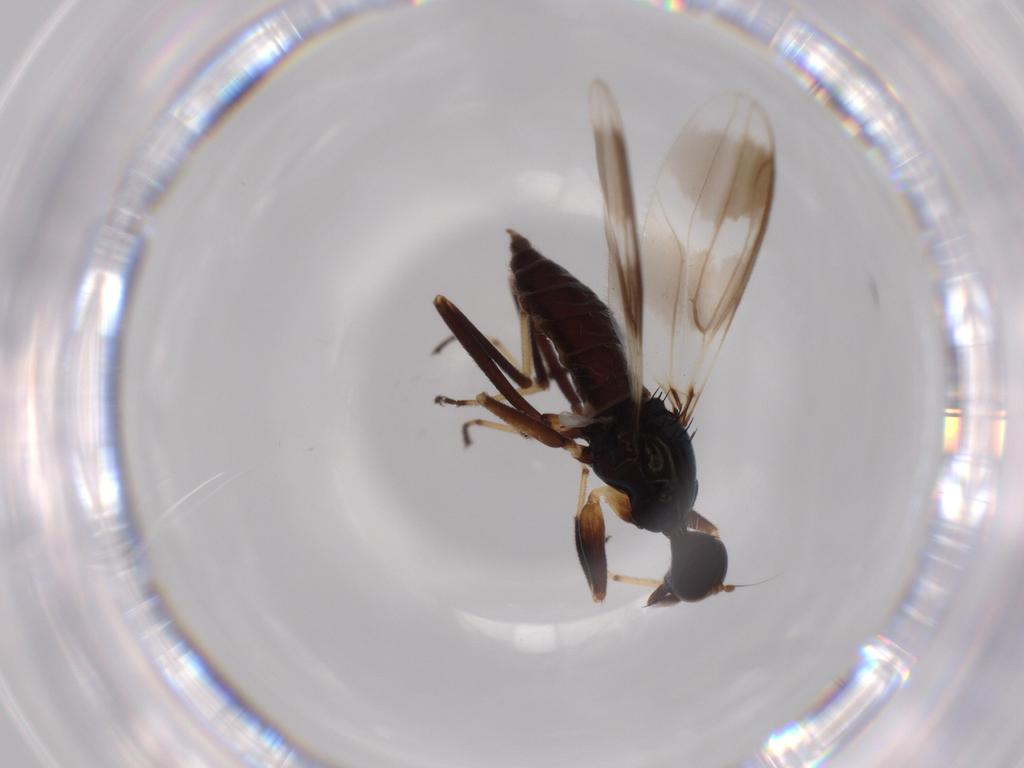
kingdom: Animalia
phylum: Arthropoda
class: Insecta
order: Diptera
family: Hybotidae
